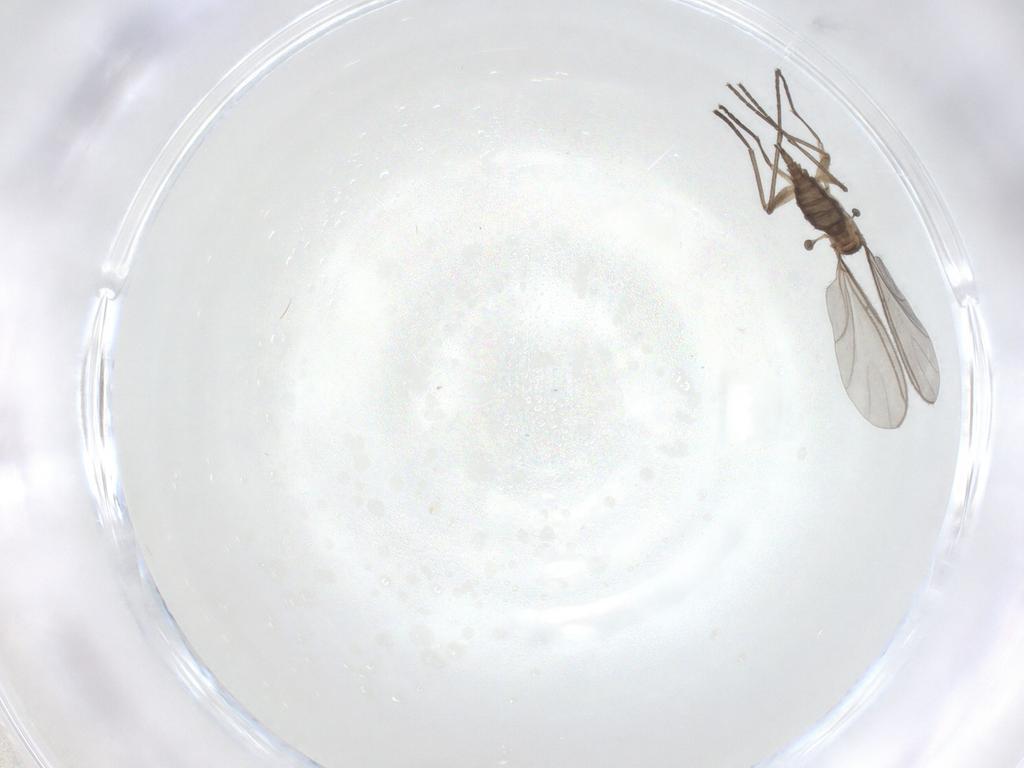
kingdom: Animalia
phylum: Arthropoda
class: Insecta
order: Diptera
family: Sciaridae
